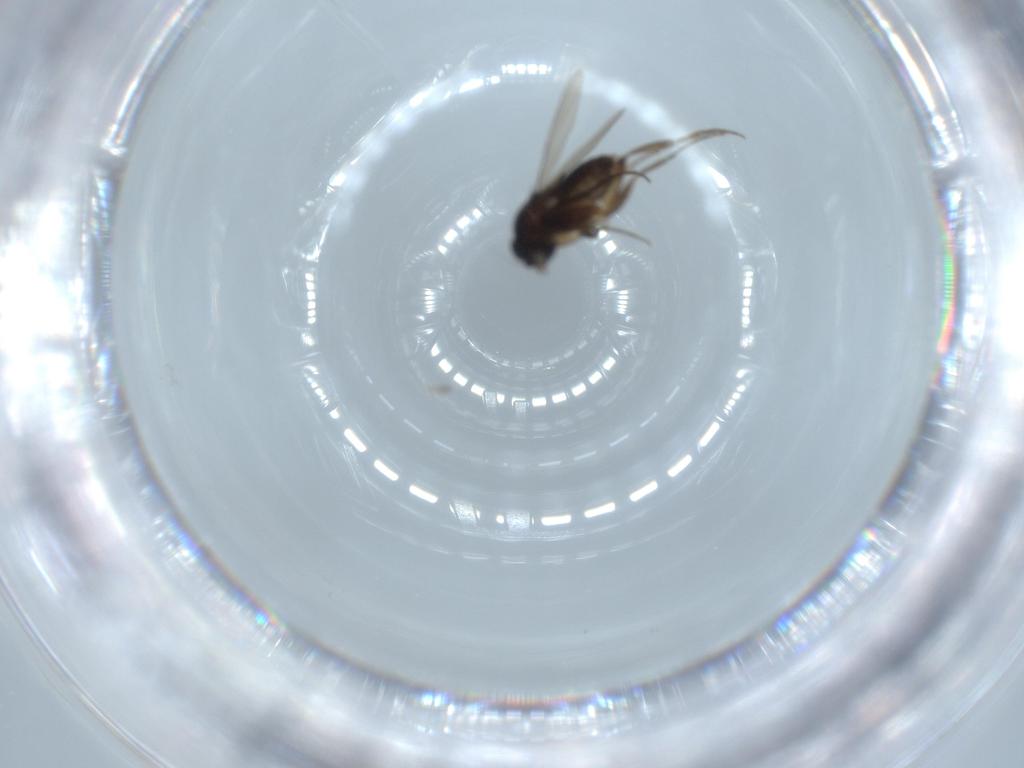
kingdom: Animalia
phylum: Arthropoda
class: Insecta
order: Diptera
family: Phoridae
